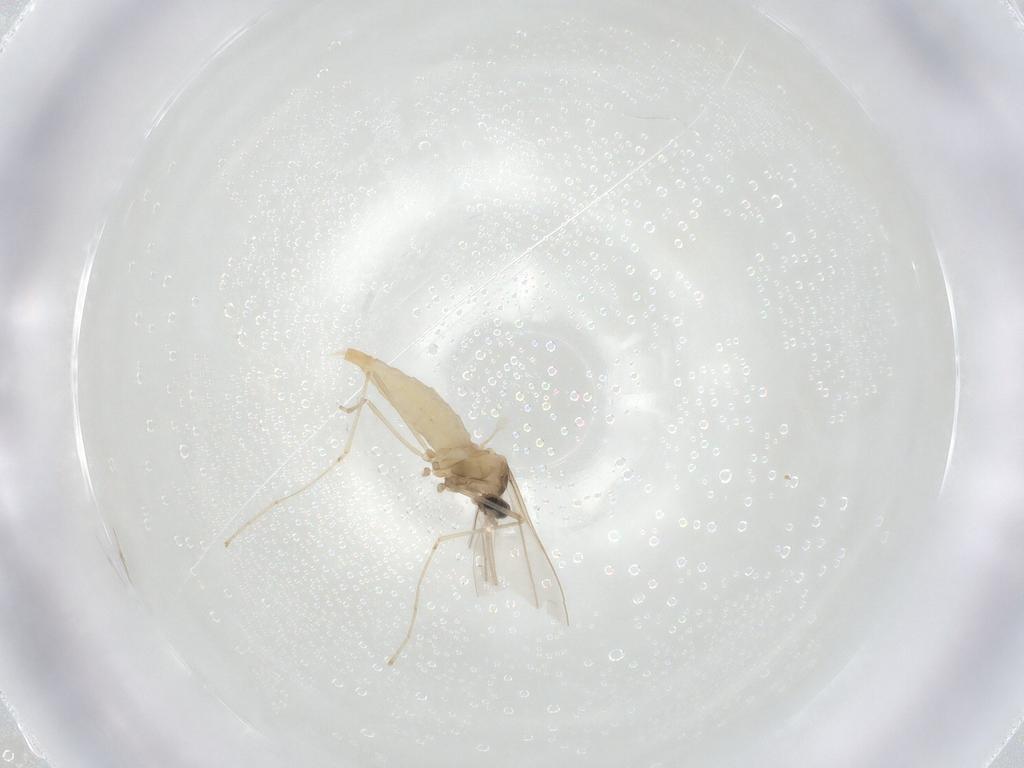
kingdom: Animalia
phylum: Arthropoda
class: Insecta
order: Diptera
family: Cecidomyiidae
